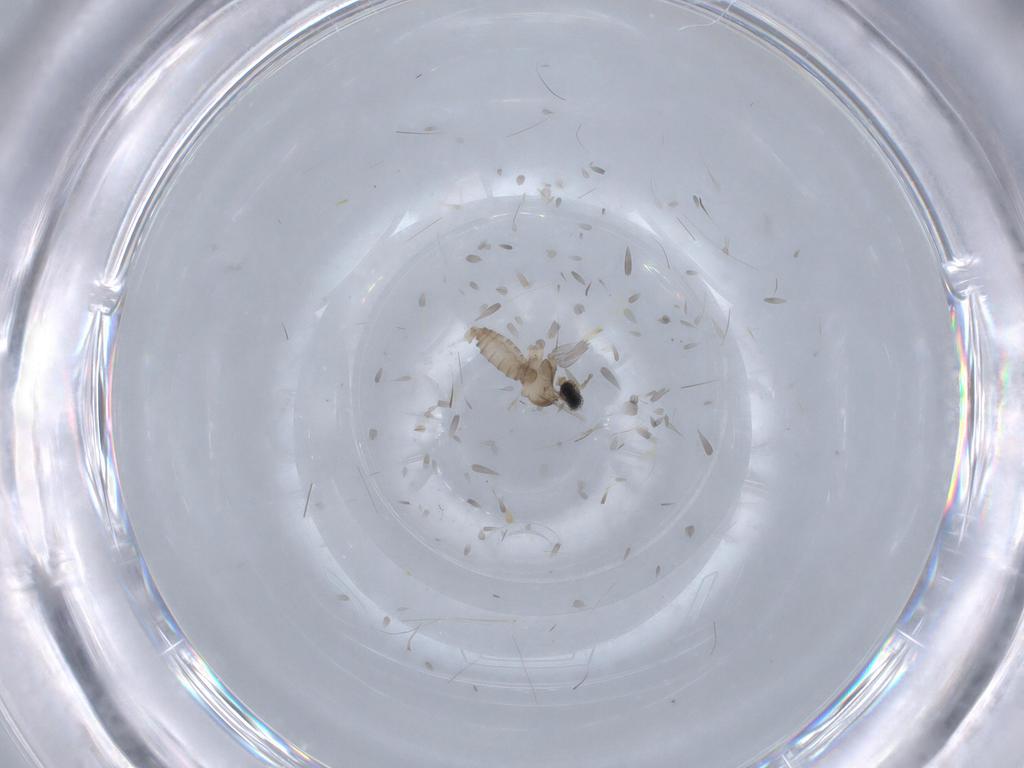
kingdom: Animalia
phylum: Arthropoda
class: Insecta
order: Diptera
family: Cecidomyiidae
